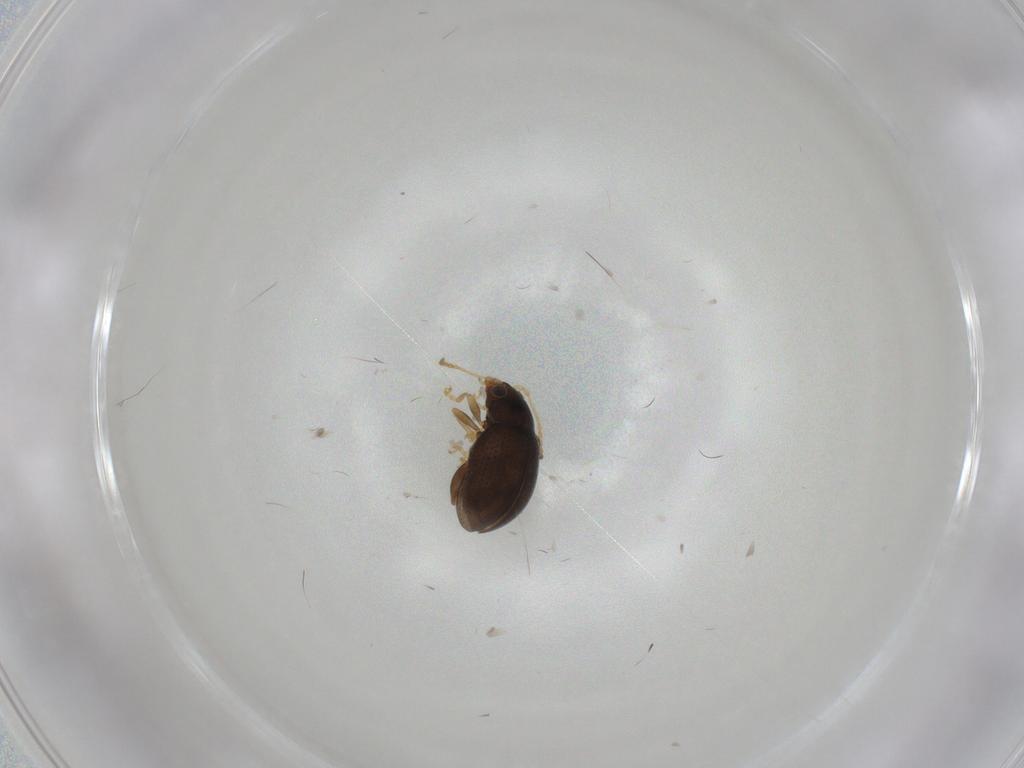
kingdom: Animalia
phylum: Arthropoda
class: Insecta
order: Coleoptera
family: Chrysomelidae
